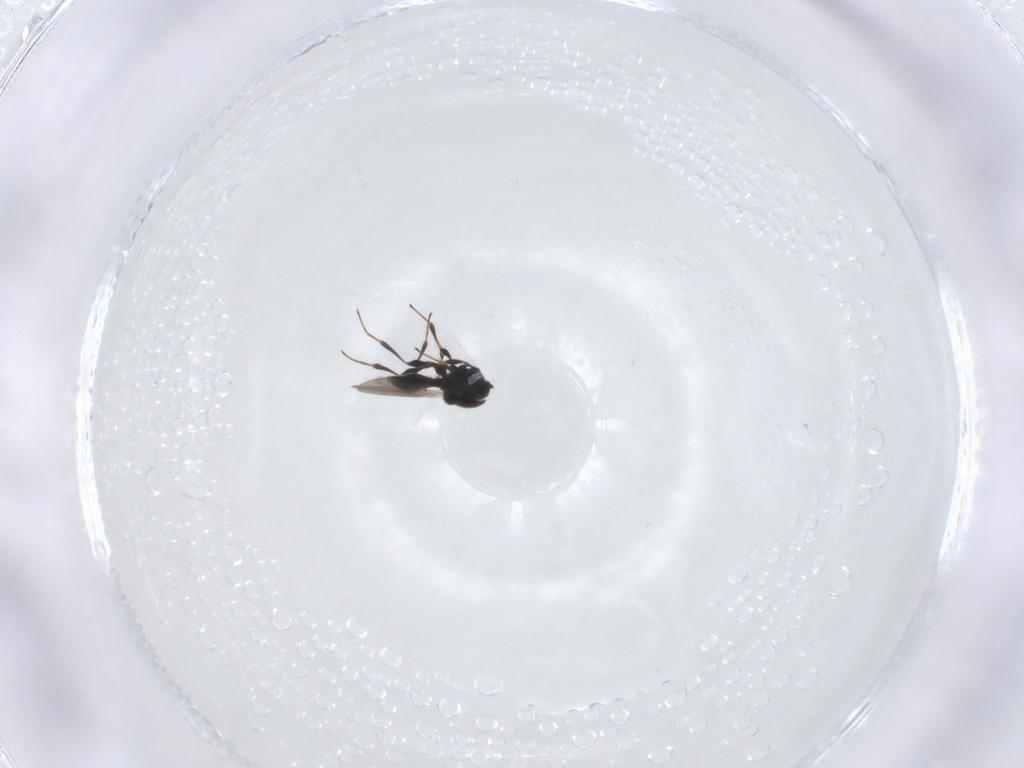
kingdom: Animalia
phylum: Arthropoda
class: Insecta
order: Hymenoptera
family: Platygastridae
